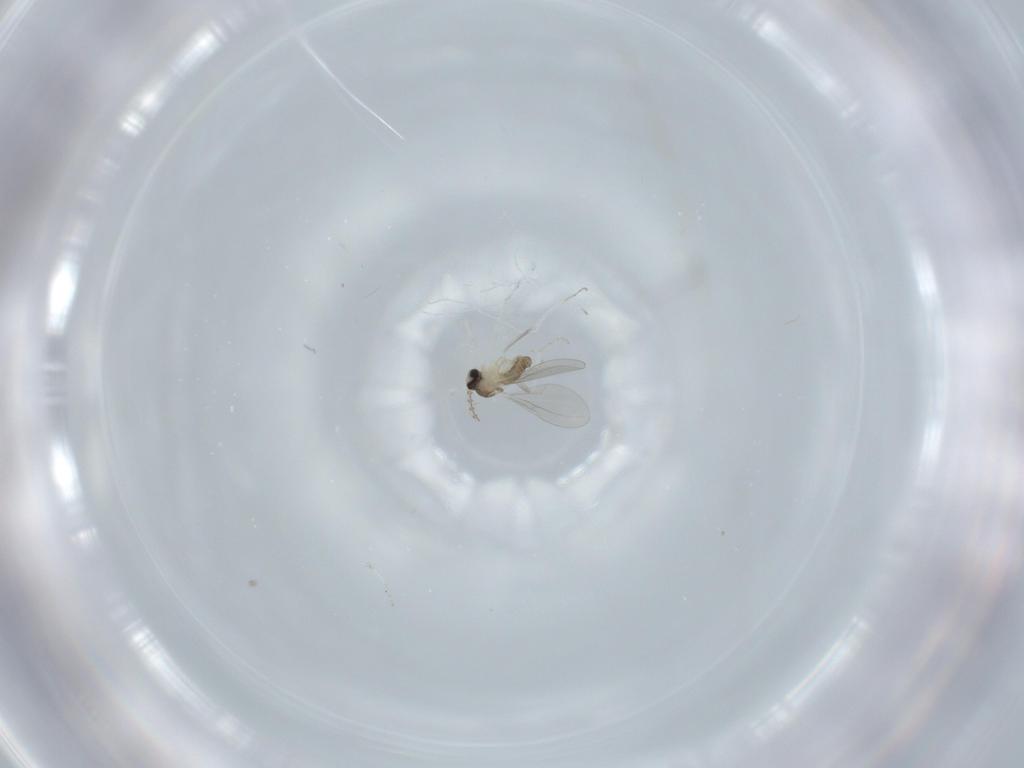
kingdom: Animalia
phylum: Arthropoda
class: Insecta
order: Diptera
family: Cecidomyiidae
